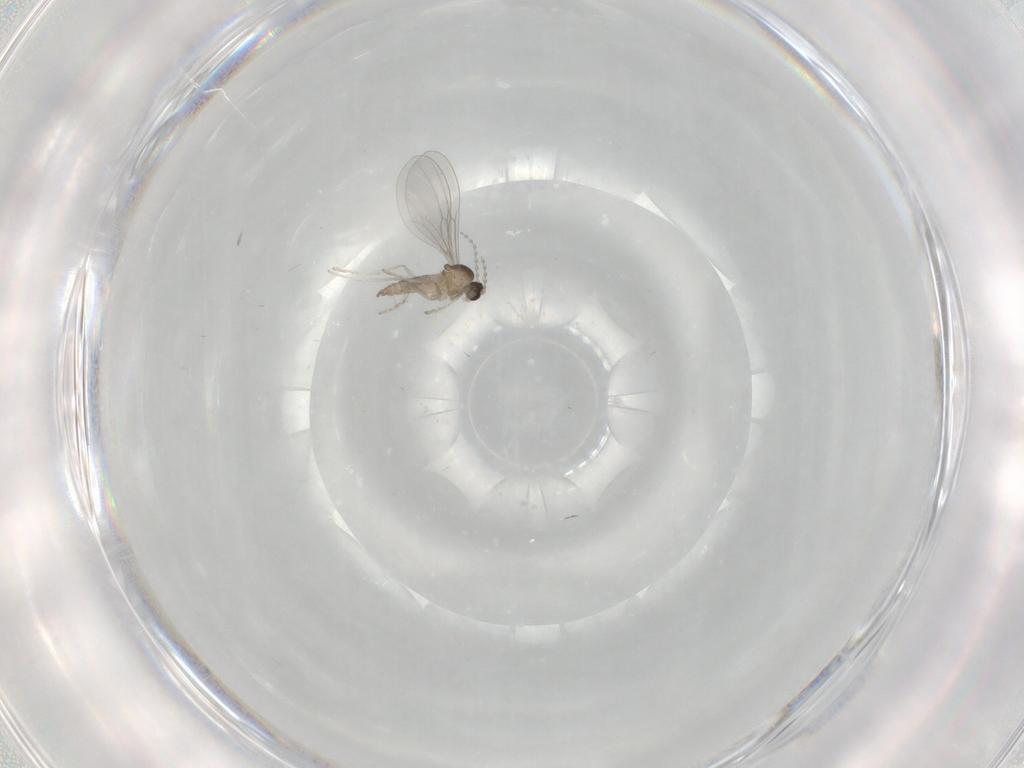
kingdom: Animalia
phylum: Arthropoda
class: Insecta
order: Diptera
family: Cecidomyiidae
